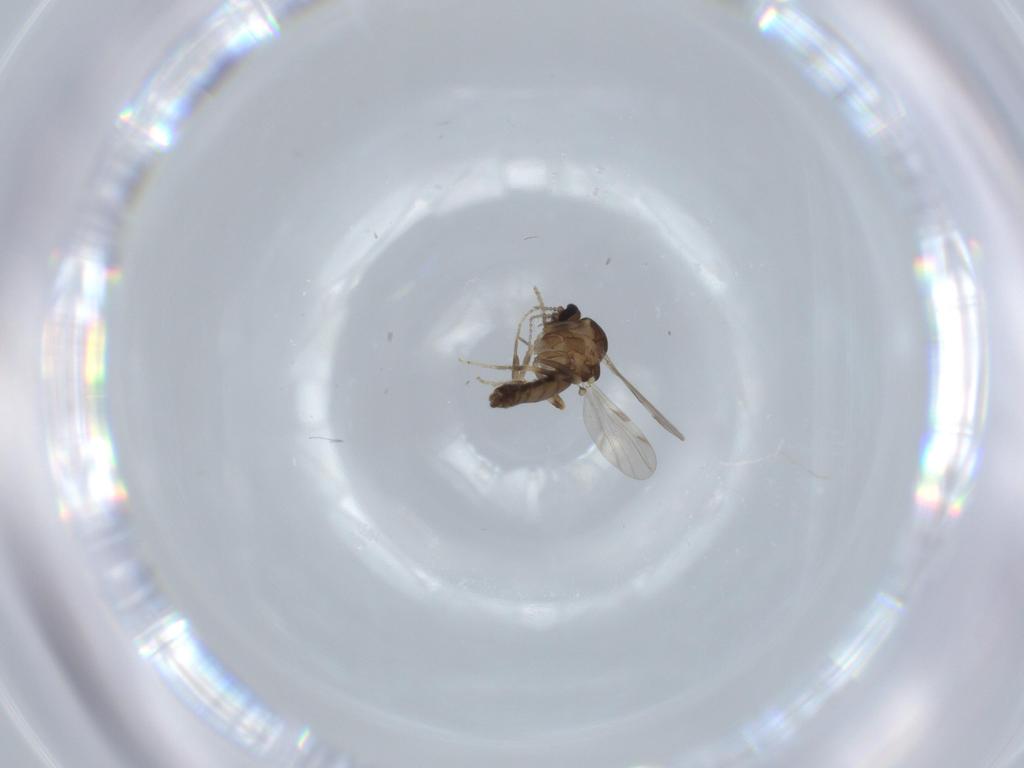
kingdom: Animalia
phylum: Arthropoda
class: Insecta
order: Diptera
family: Ceratopogonidae
